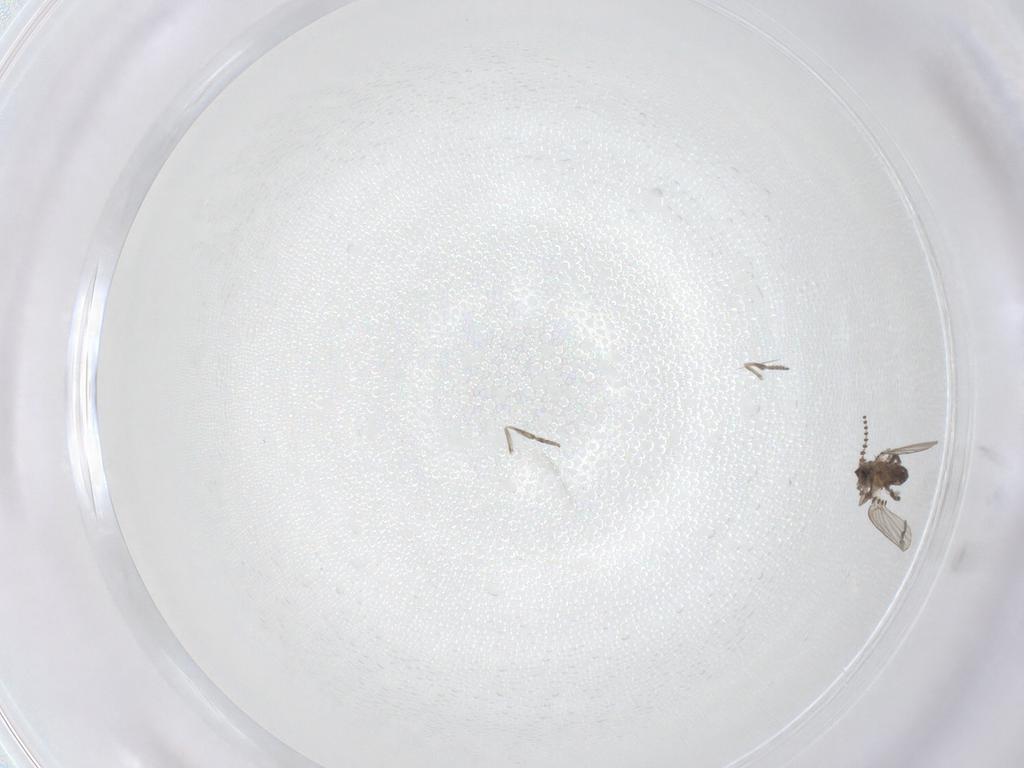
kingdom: Animalia
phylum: Arthropoda
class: Insecta
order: Diptera
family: Psychodidae
